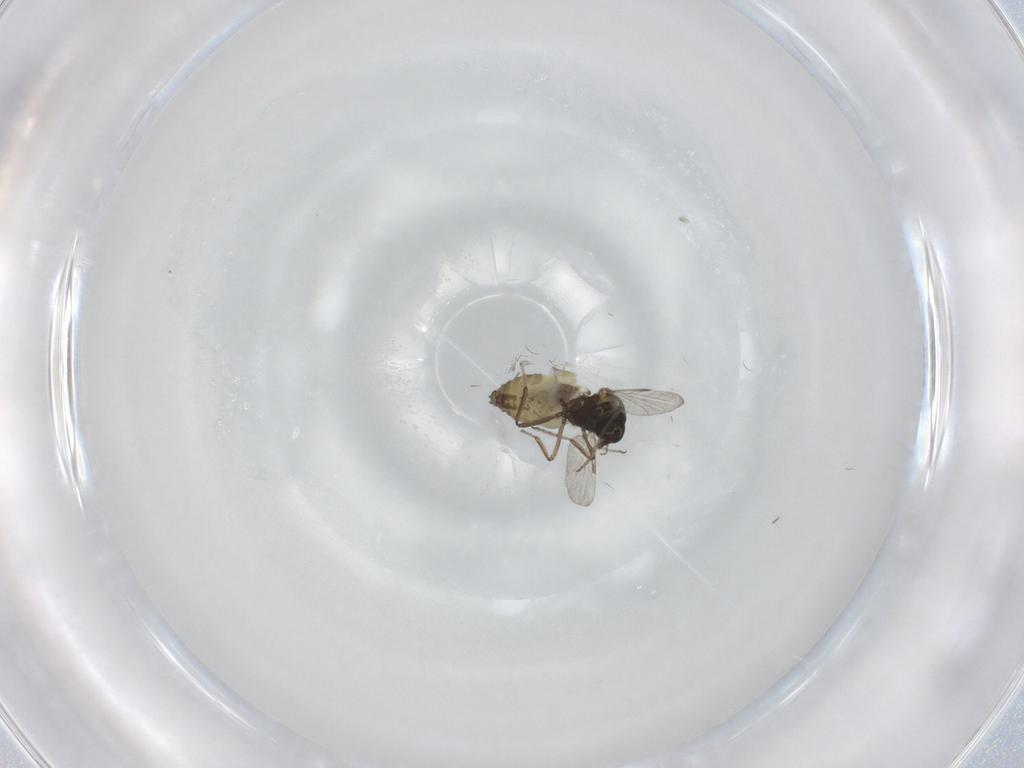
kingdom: Animalia
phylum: Arthropoda
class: Insecta
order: Diptera
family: Ceratopogonidae
